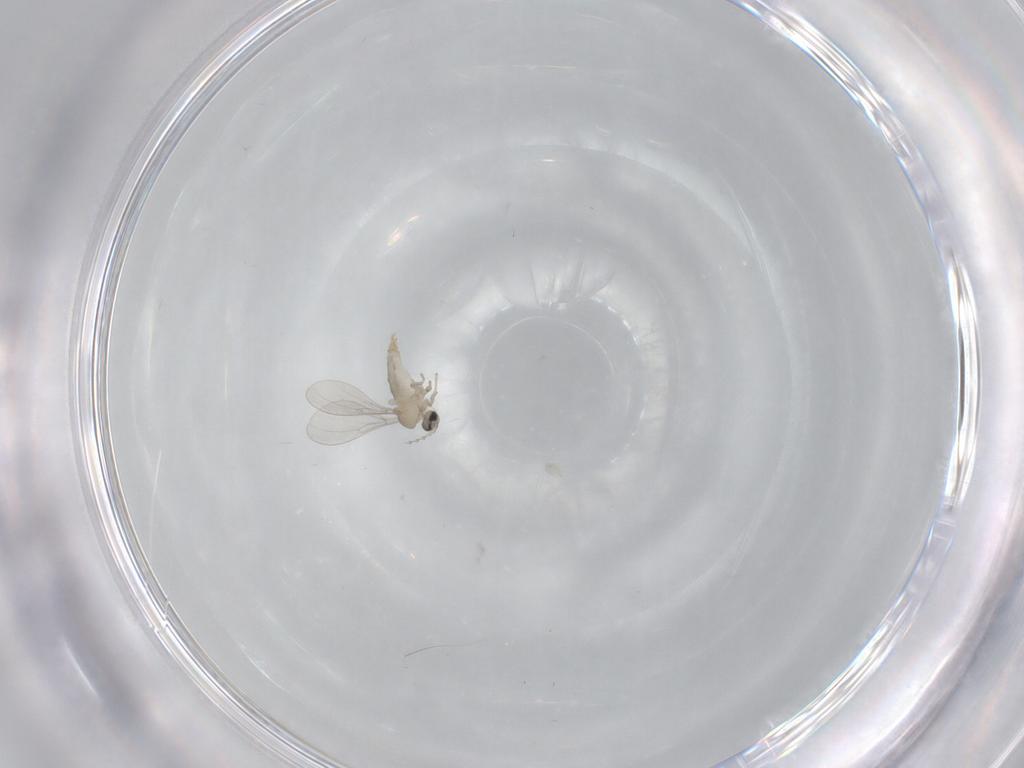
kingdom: Animalia
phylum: Arthropoda
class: Insecta
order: Diptera
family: Cecidomyiidae
